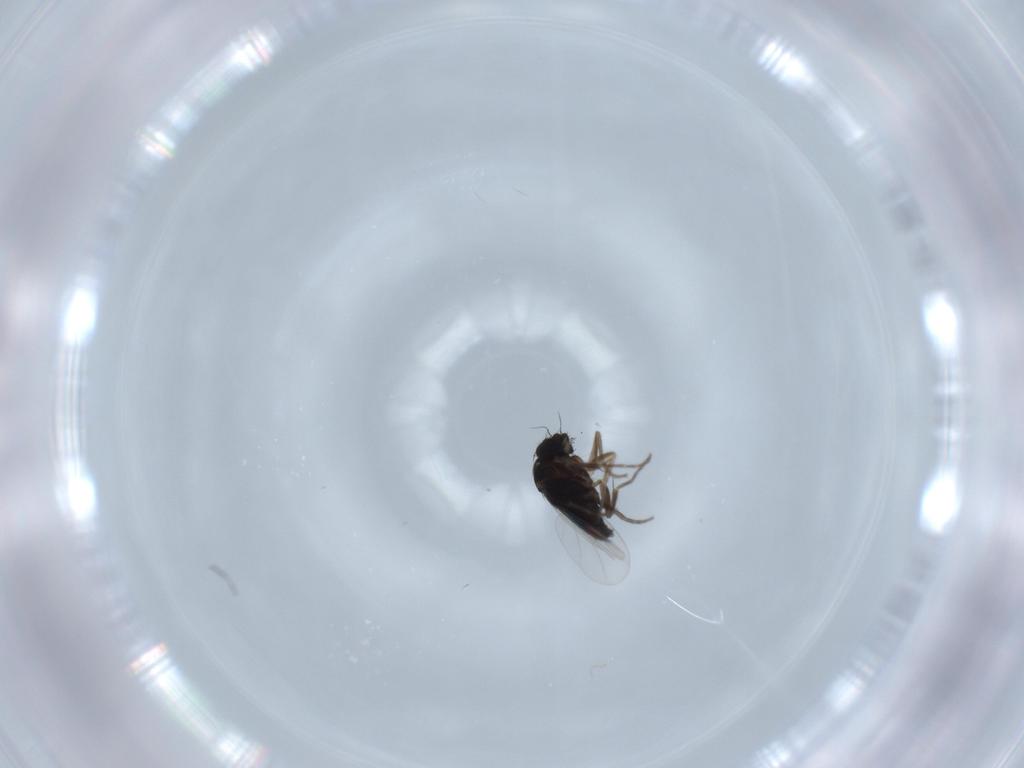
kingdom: Animalia
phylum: Arthropoda
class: Insecta
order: Diptera
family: Phoridae
